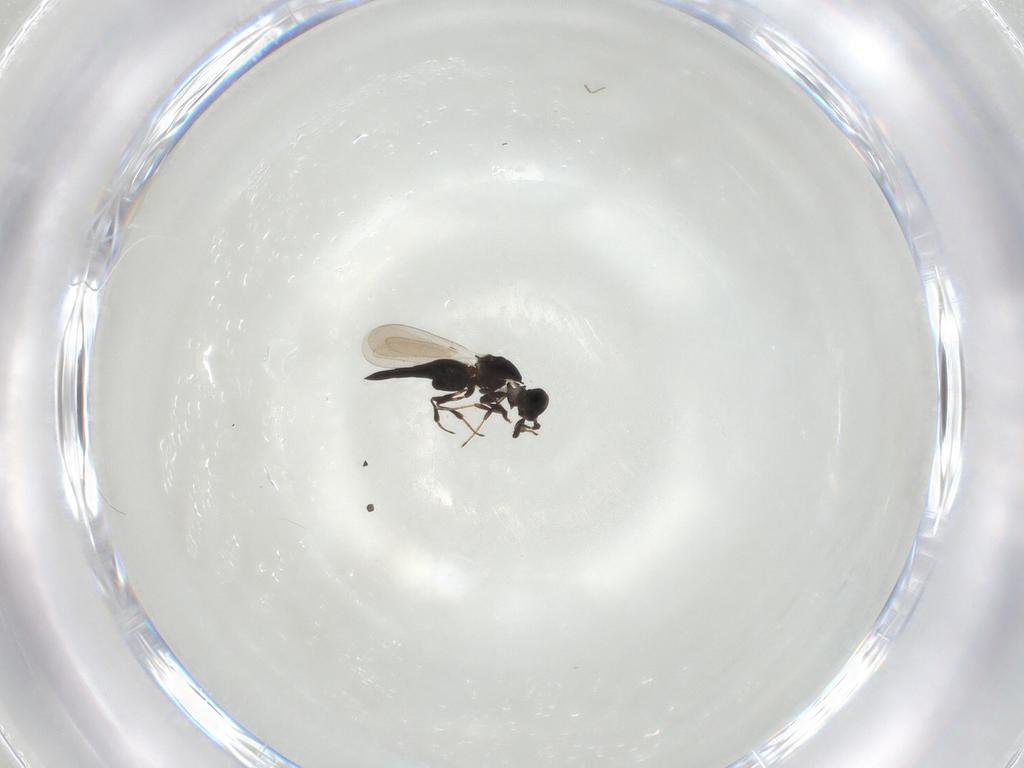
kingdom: Animalia
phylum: Arthropoda
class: Insecta
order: Hymenoptera
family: Platygastridae
